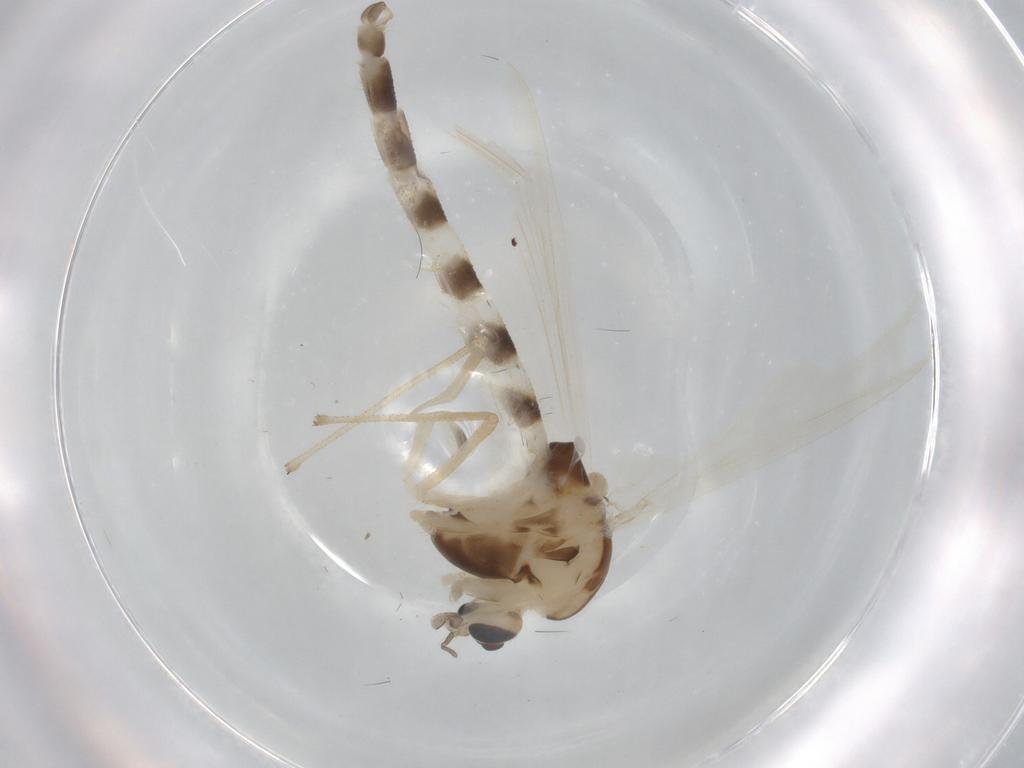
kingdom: Animalia
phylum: Arthropoda
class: Insecta
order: Diptera
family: Chironomidae
